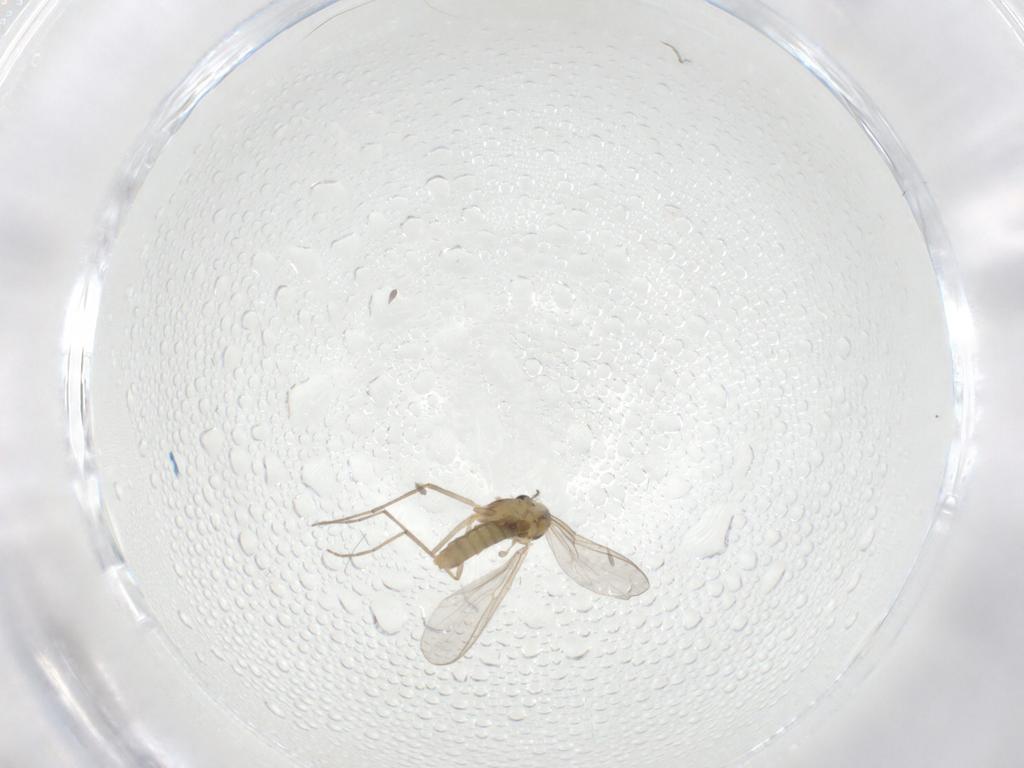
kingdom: Animalia
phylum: Arthropoda
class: Insecta
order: Diptera
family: Chironomidae
